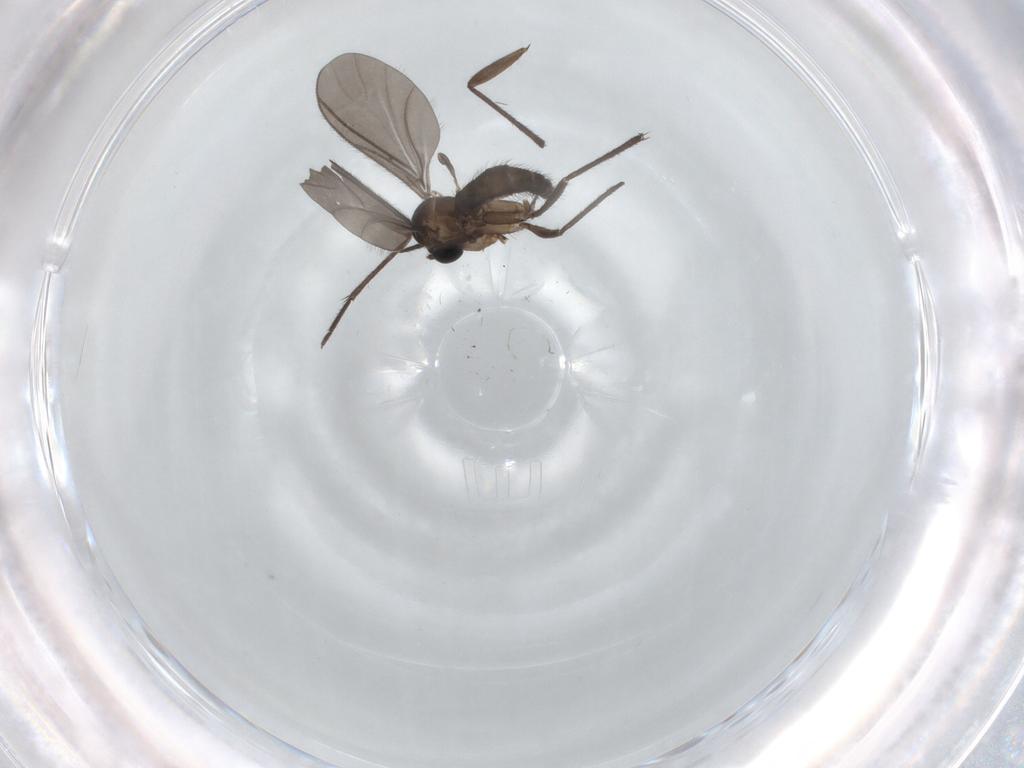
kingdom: Animalia
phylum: Arthropoda
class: Insecta
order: Diptera
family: Sciaridae
